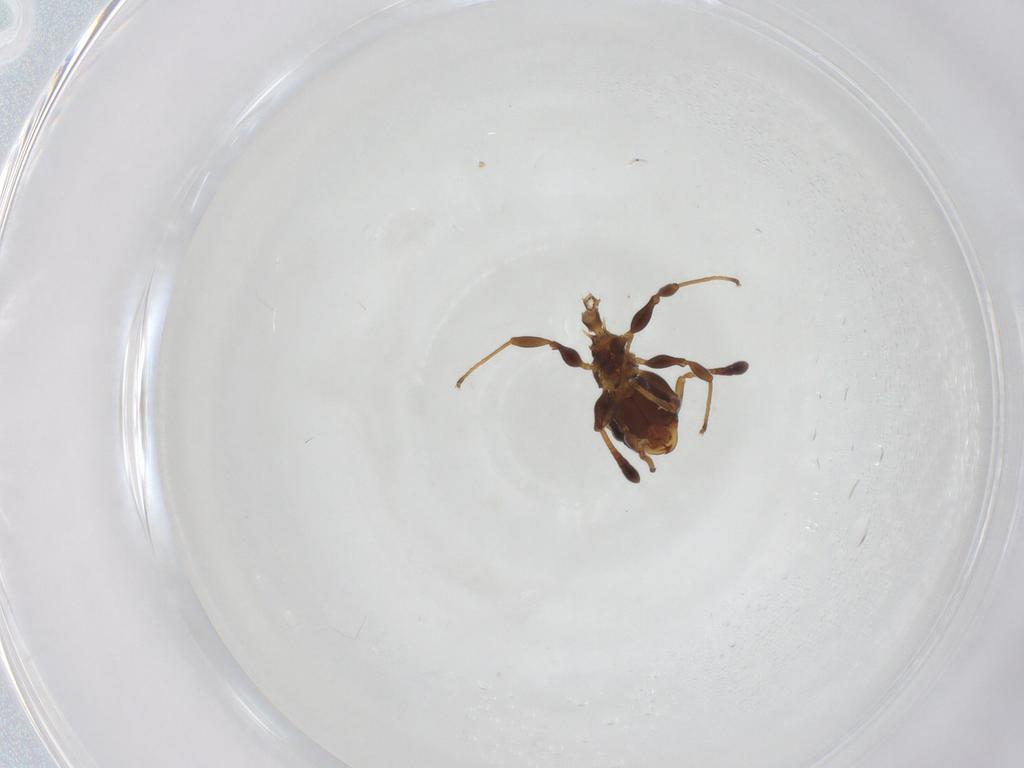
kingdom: Animalia
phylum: Arthropoda
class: Insecta
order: Hymenoptera
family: Formicidae
